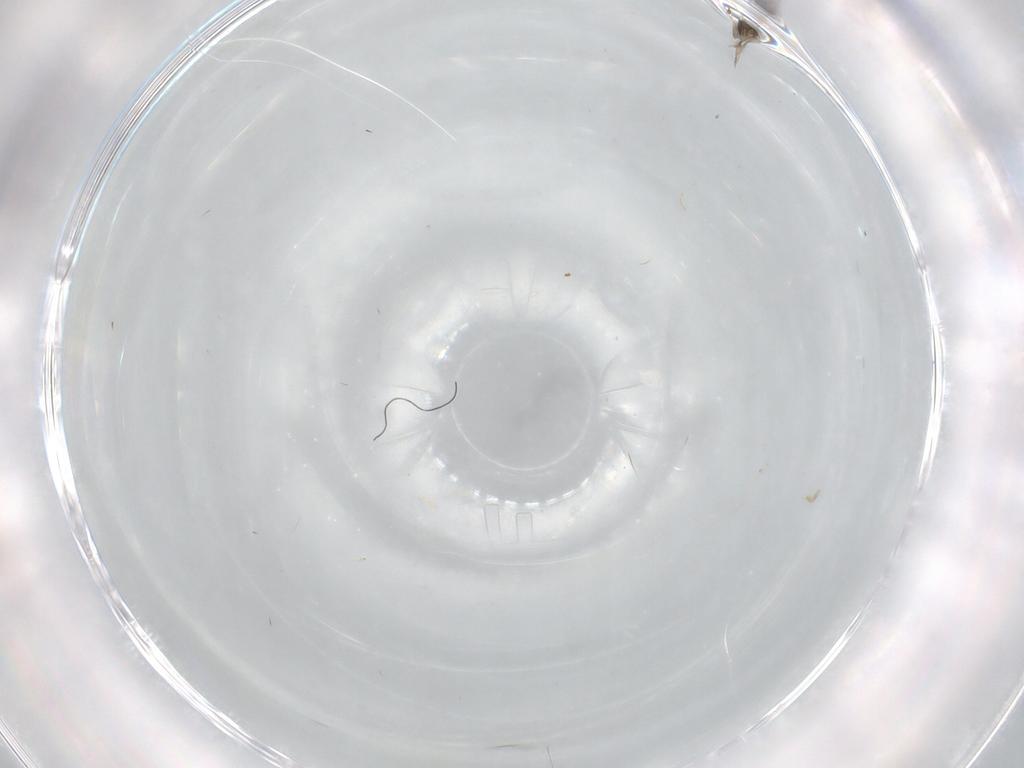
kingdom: Animalia
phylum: Arthropoda
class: Insecta
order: Hymenoptera
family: Mymaridae
